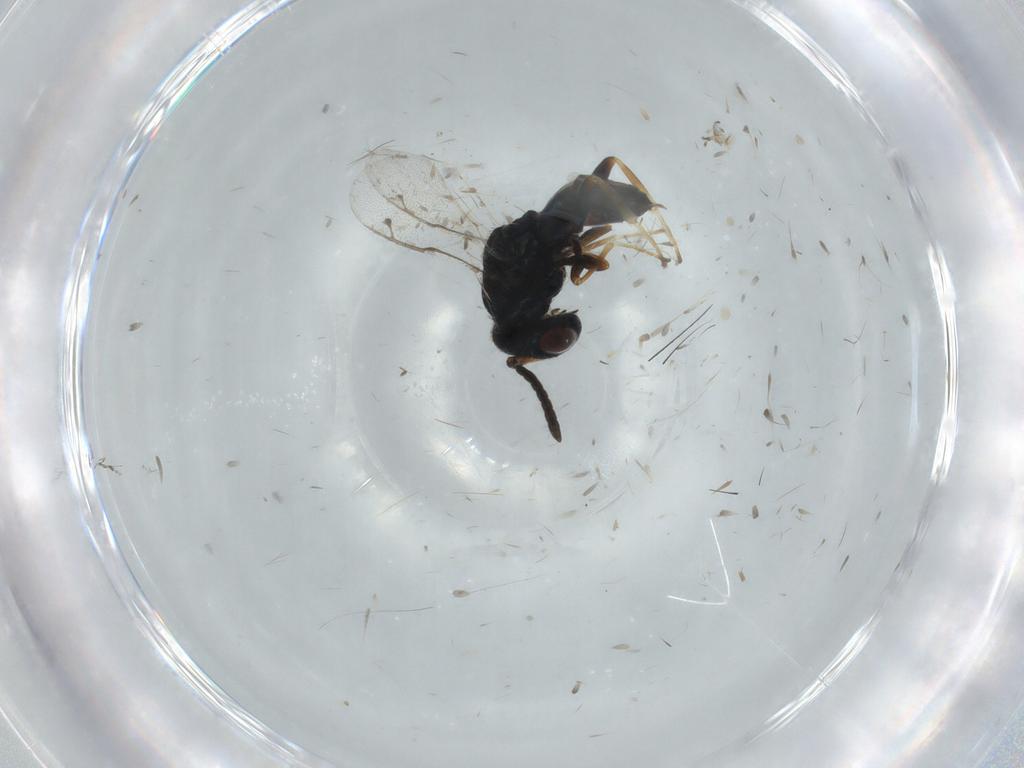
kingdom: Animalia
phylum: Arthropoda
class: Insecta
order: Hymenoptera
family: Pteromalidae
